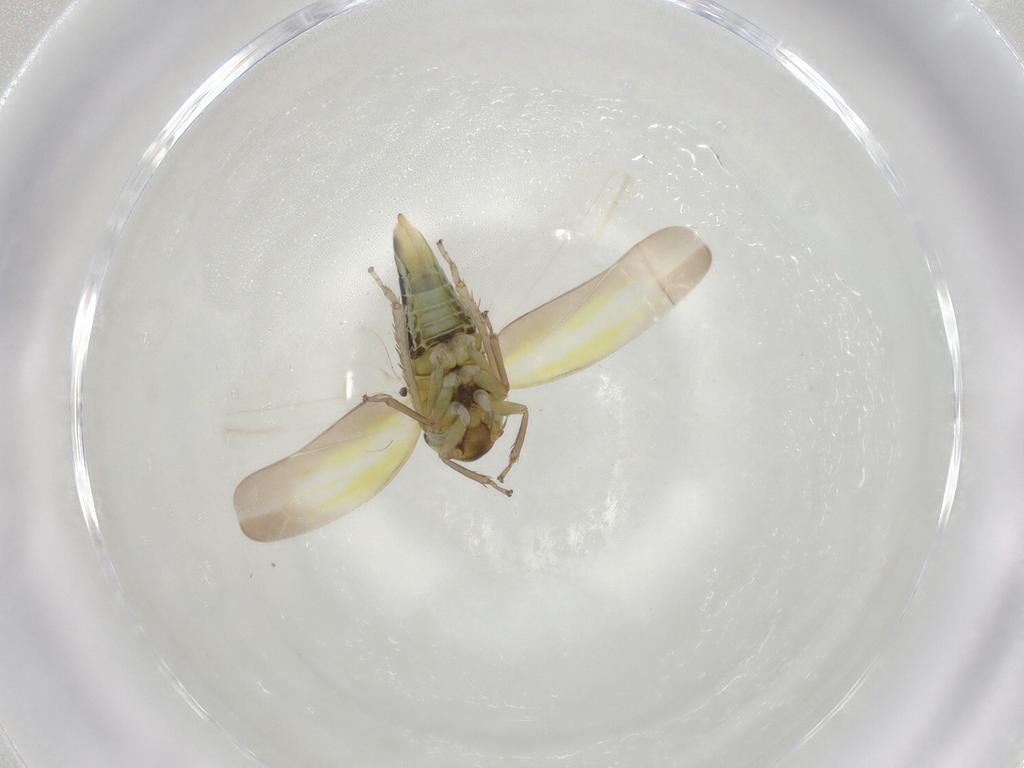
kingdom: Animalia
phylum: Arthropoda
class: Insecta
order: Hemiptera
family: Cicadellidae
